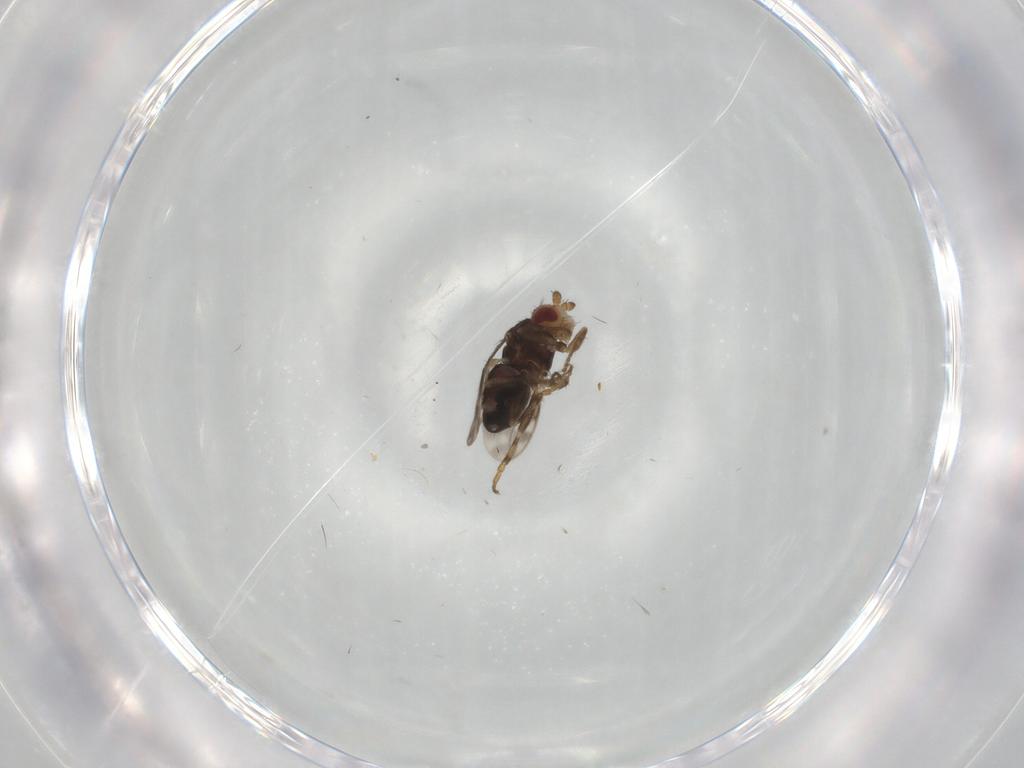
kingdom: Animalia
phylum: Arthropoda
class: Insecta
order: Diptera
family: Sphaeroceridae
